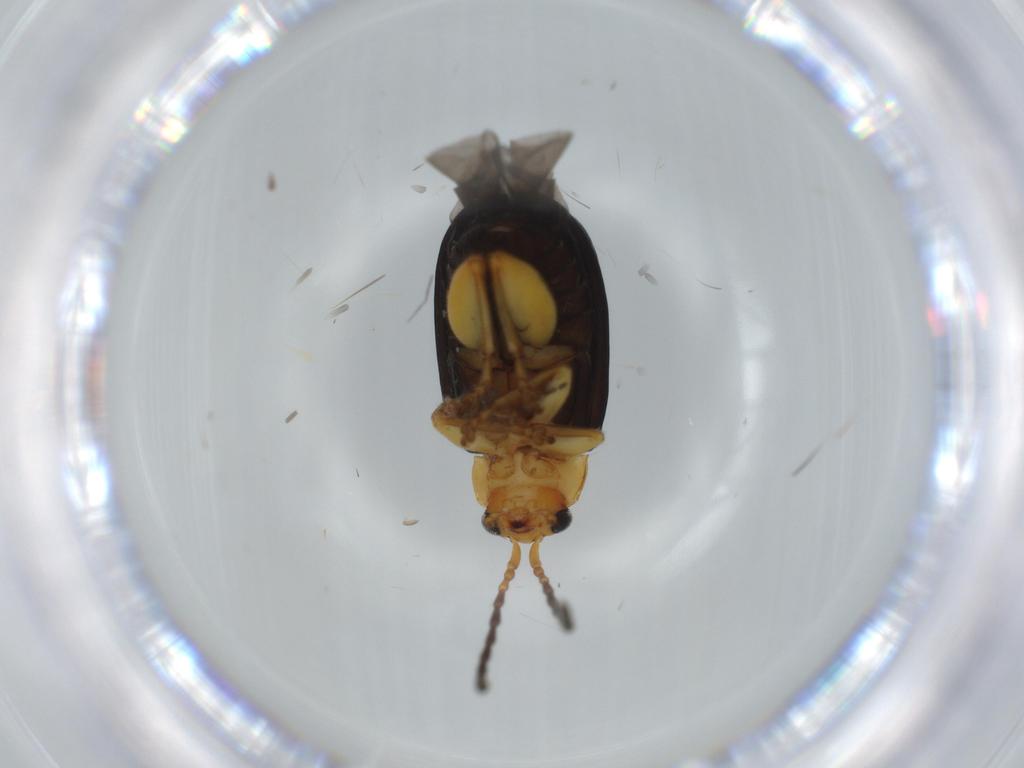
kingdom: Animalia
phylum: Arthropoda
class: Insecta
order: Coleoptera
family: Chrysomelidae
